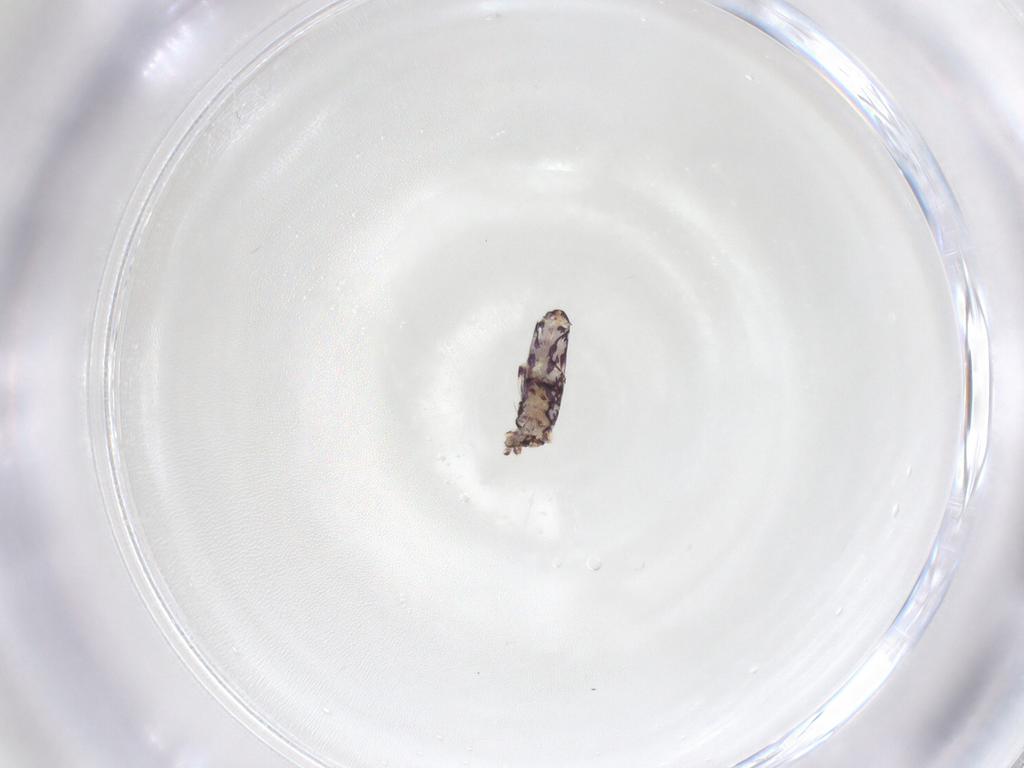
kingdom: Animalia
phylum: Arthropoda
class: Collembola
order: Entomobryomorpha
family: Entomobryidae
